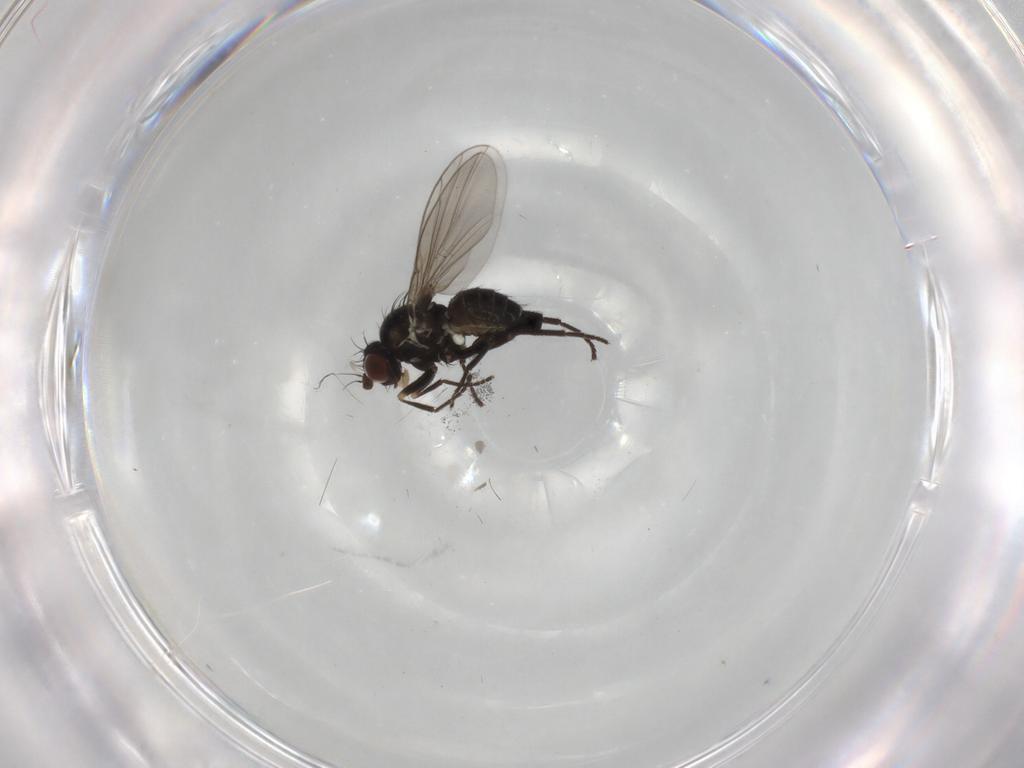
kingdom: Animalia
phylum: Arthropoda
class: Insecta
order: Diptera
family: Agromyzidae
